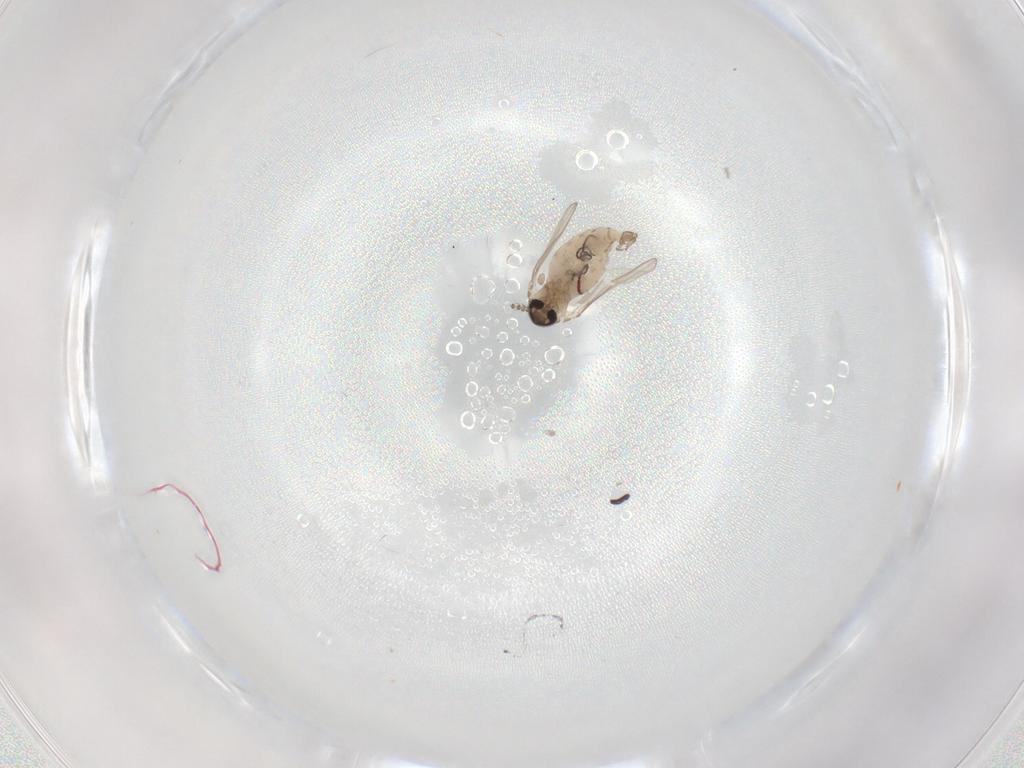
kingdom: Animalia
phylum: Arthropoda
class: Insecta
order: Diptera
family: Psychodidae
